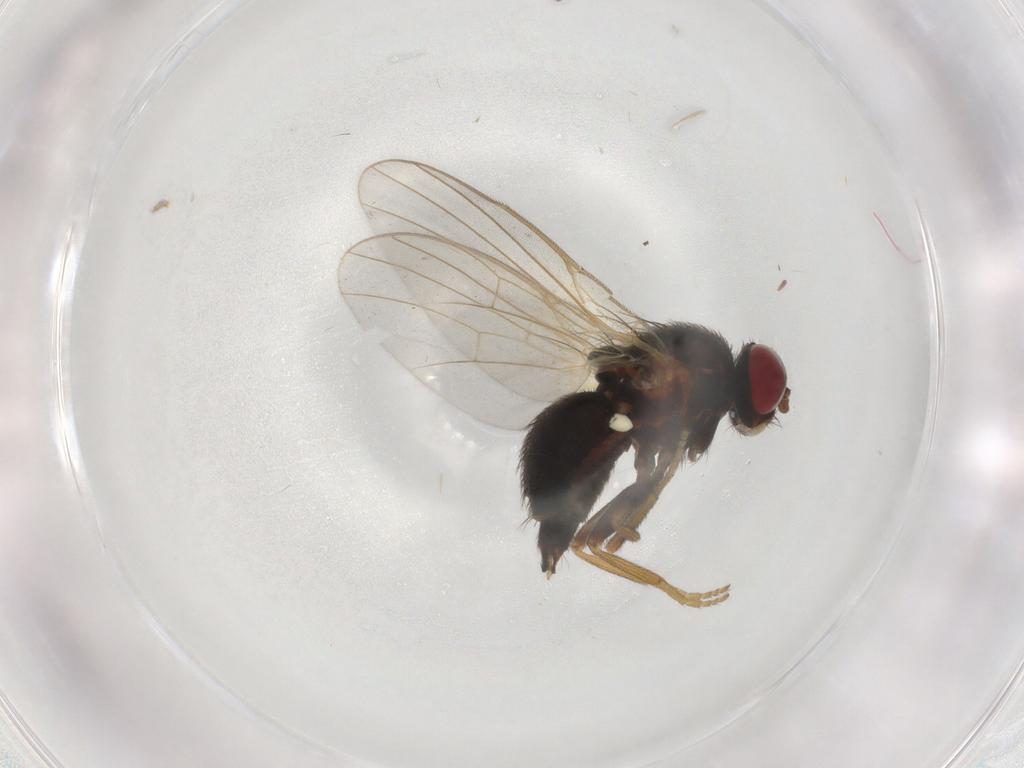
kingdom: Animalia
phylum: Arthropoda
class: Insecta
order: Diptera
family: Agromyzidae
